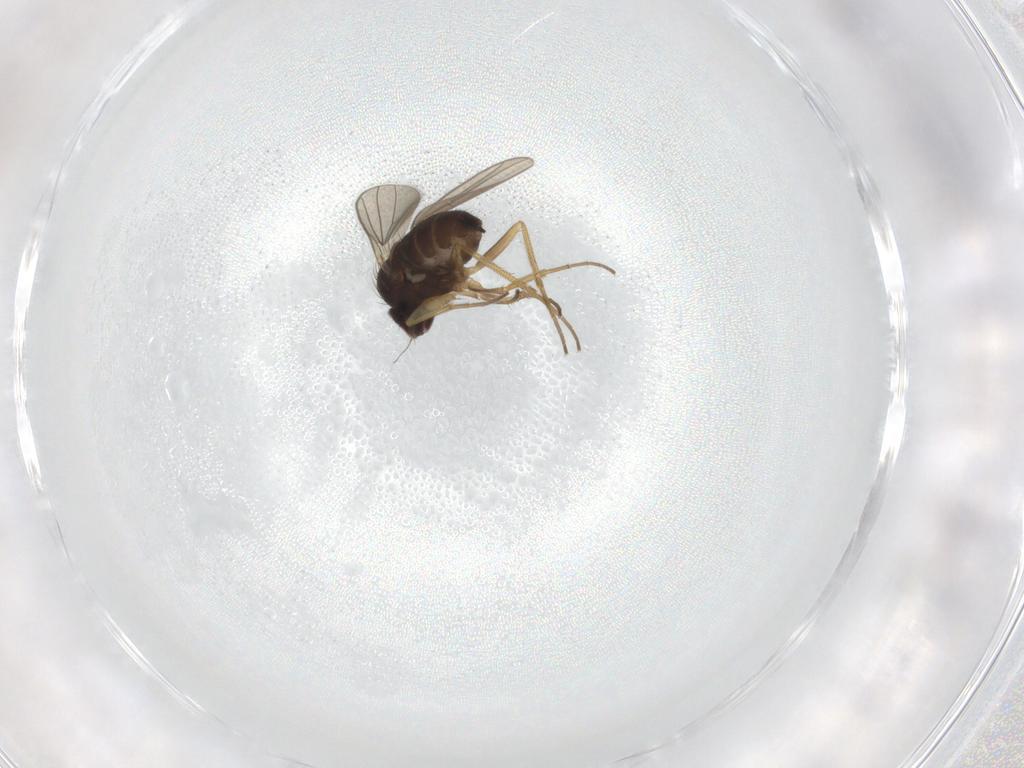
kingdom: Animalia
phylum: Arthropoda
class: Insecta
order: Diptera
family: Dolichopodidae
